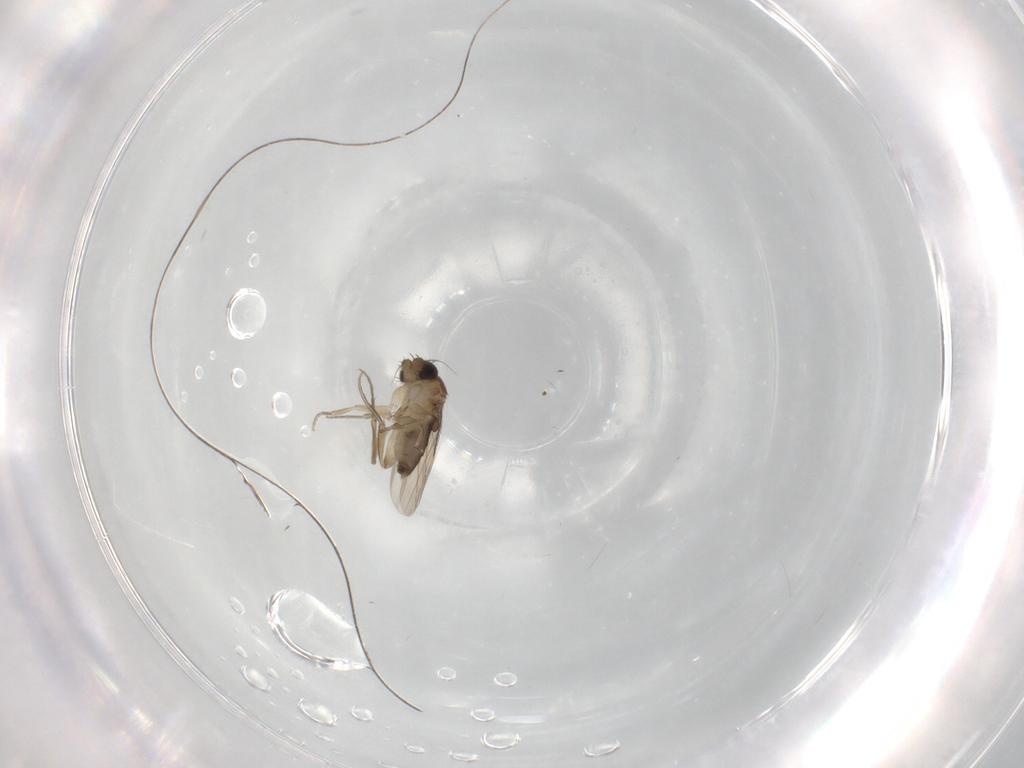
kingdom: Animalia
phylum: Arthropoda
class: Insecta
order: Diptera
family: Phoridae
